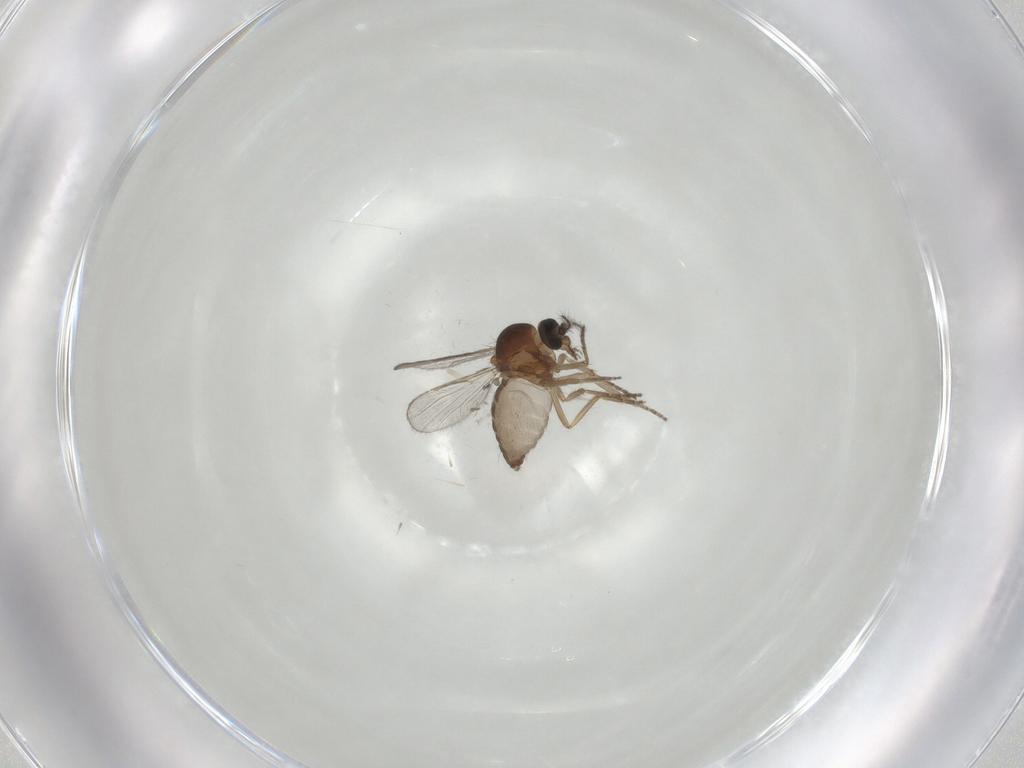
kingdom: Animalia
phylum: Arthropoda
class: Insecta
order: Diptera
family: Ceratopogonidae
